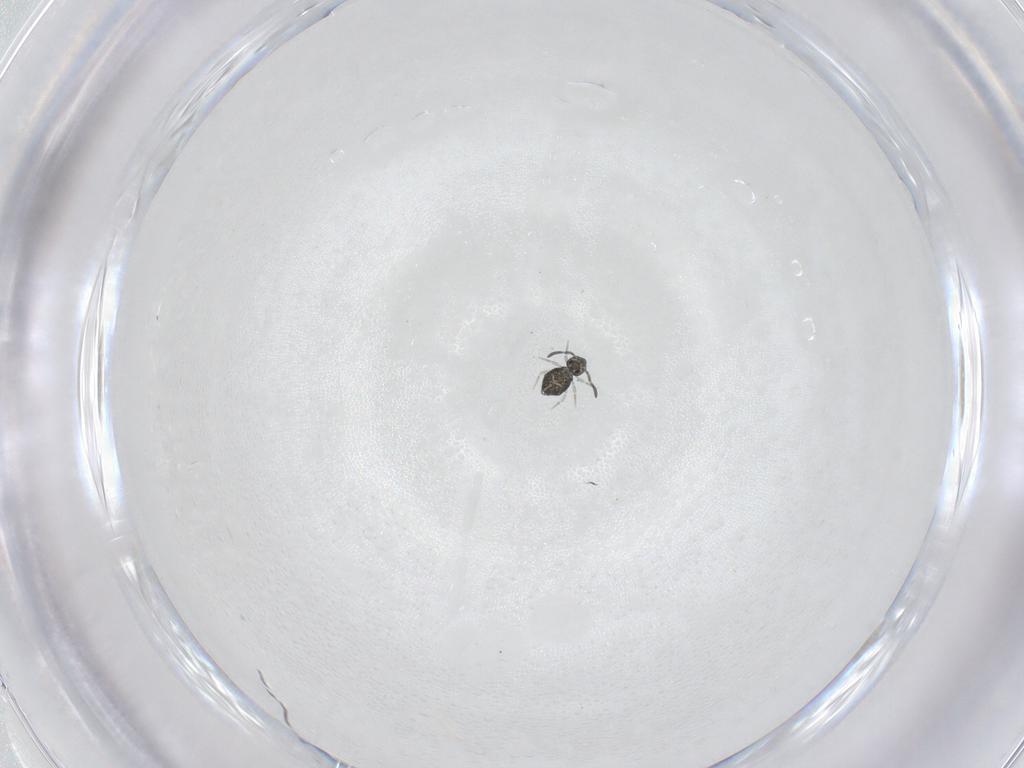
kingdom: Animalia
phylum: Arthropoda
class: Collembola
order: Symphypleona
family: Katiannidae
